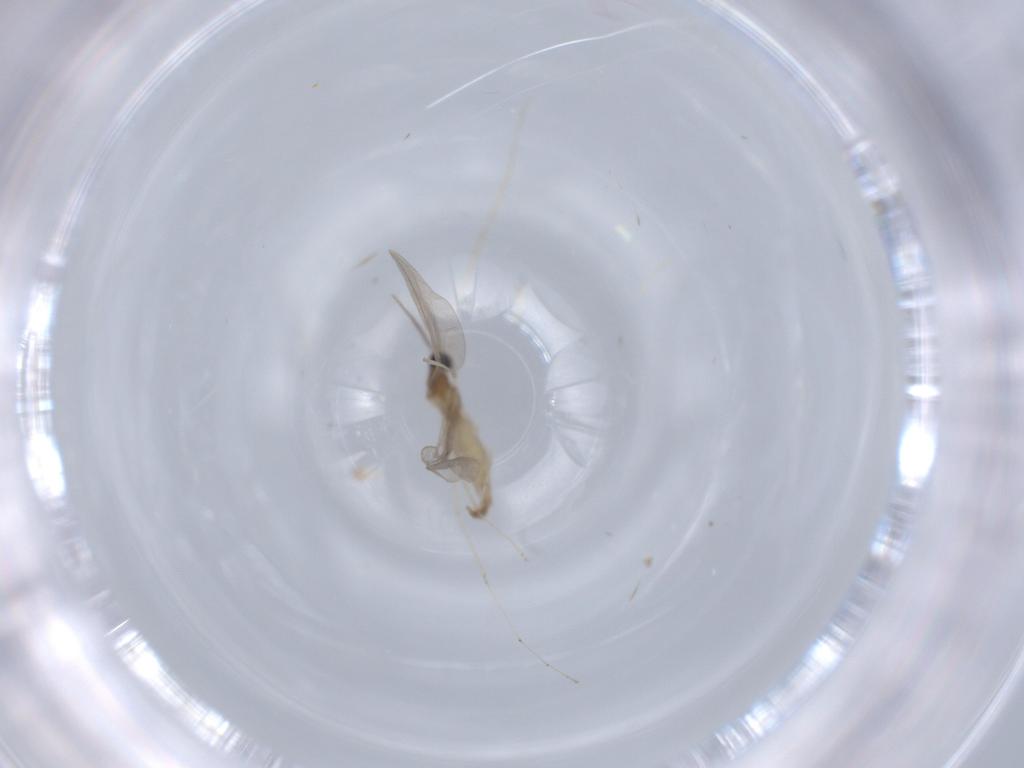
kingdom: Animalia
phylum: Arthropoda
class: Insecta
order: Diptera
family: Cecidomyiidae
